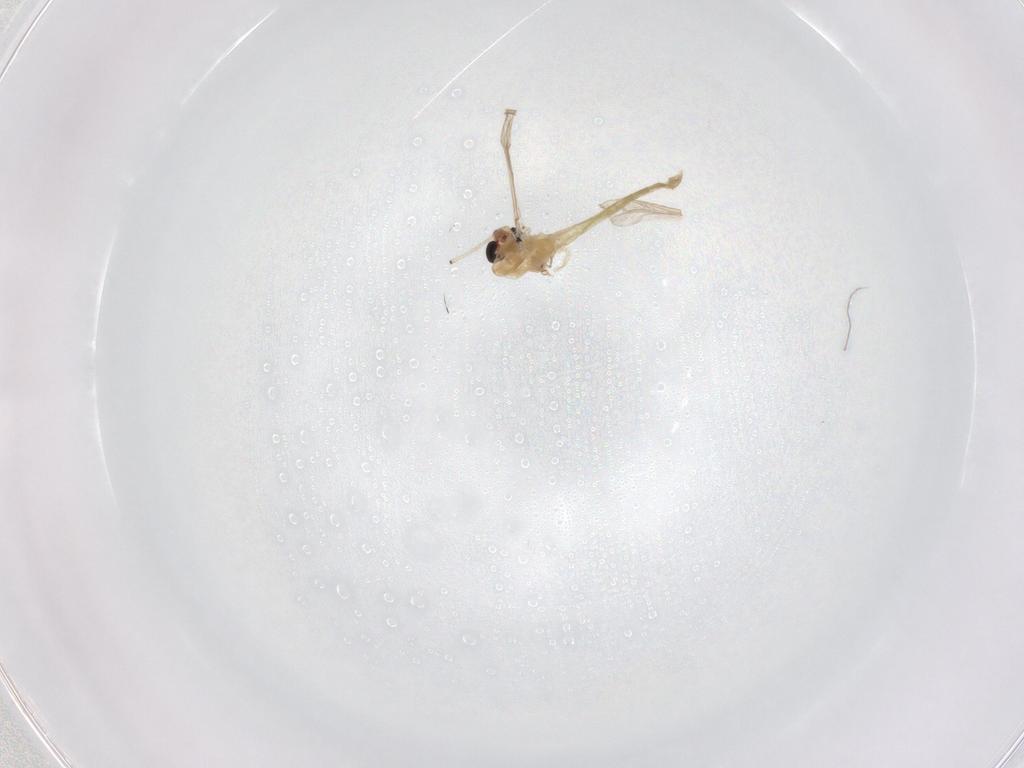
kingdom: Animalia
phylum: Arthropoda
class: Insecta
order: Diptera
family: Chironomidae
